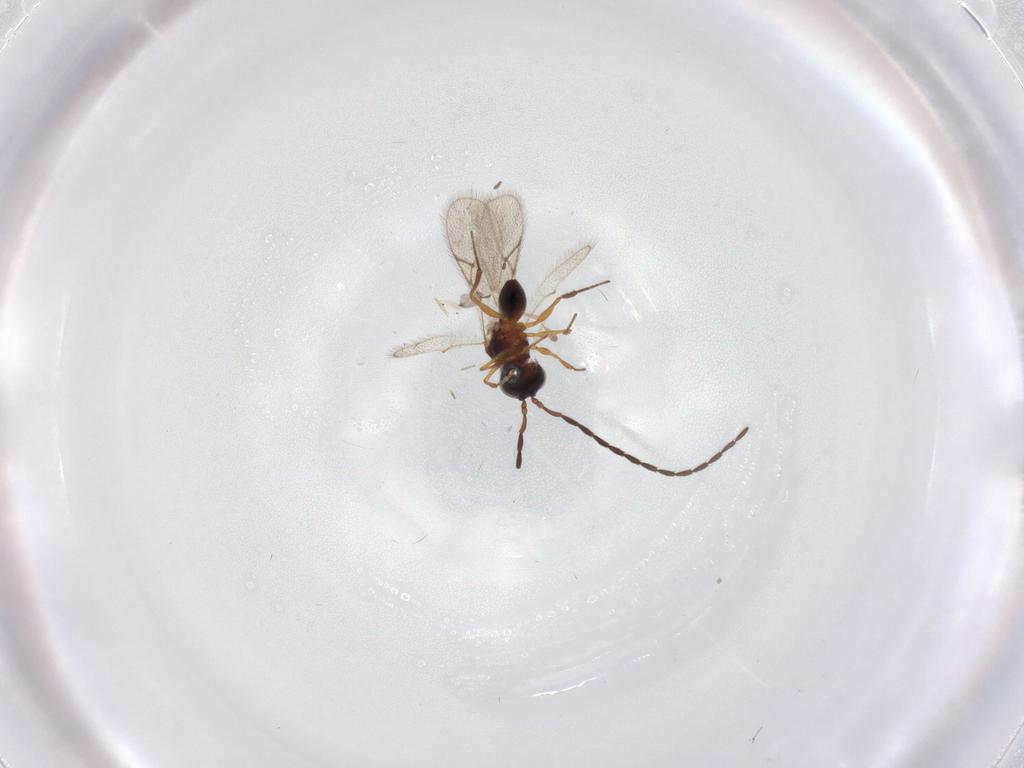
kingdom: Animalia
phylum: Arthropoda
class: Insecta
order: Hymenoptera
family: Figitidae
